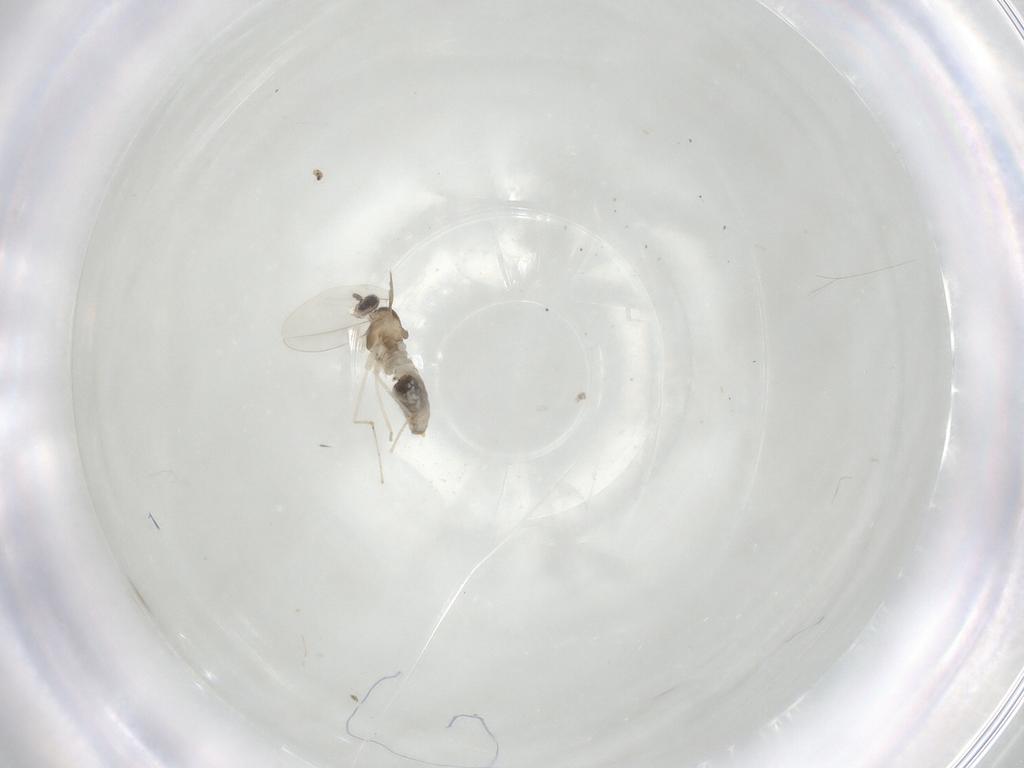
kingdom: Animalia
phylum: Arthropoda
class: Insecta
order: Diptera
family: Cecidomyiidae
